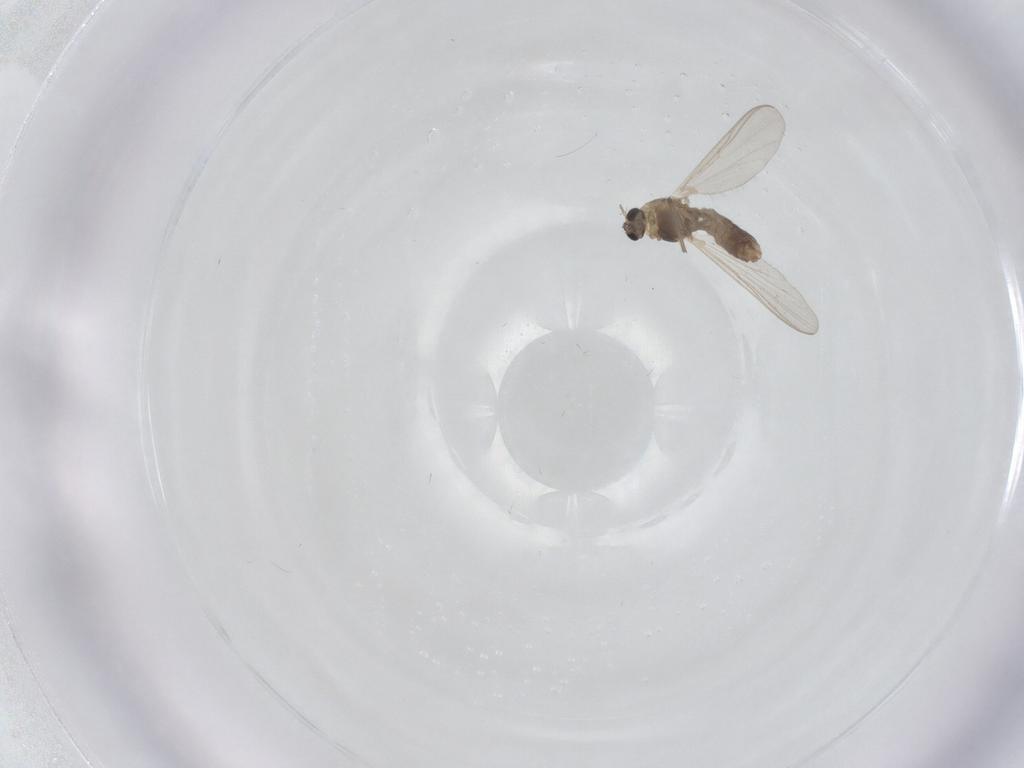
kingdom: Animalia
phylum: Arthropoda
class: Insecta
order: Diptera
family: Chironomidae
